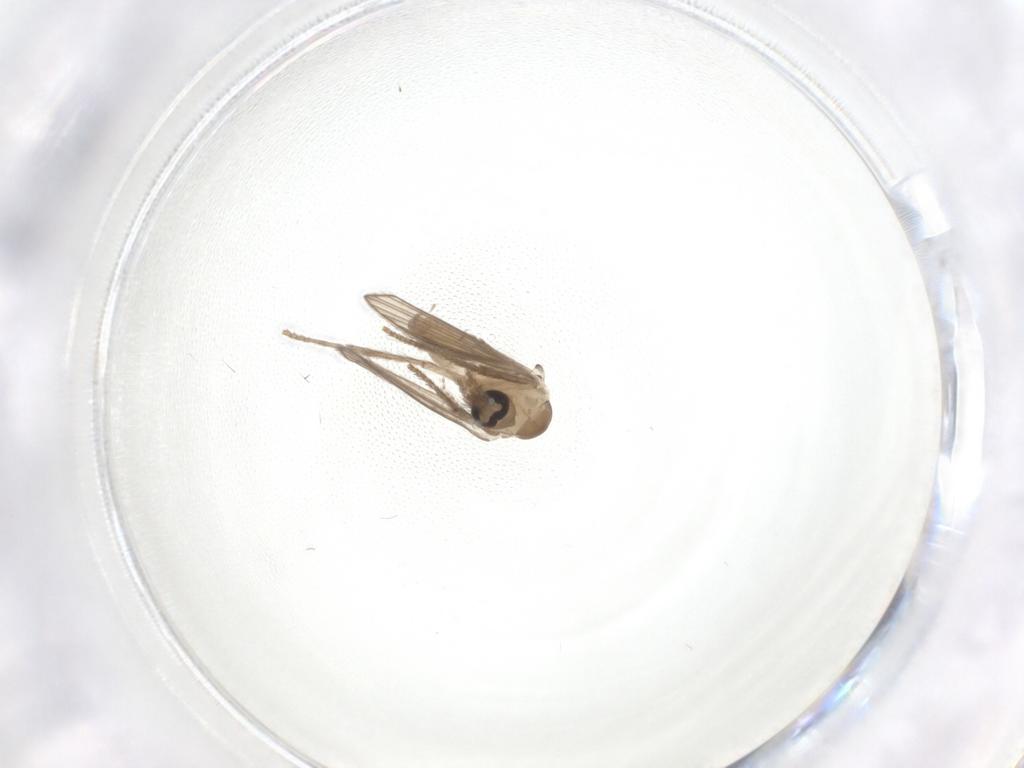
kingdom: Animalia
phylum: Arthropoda
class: Insecta
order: Diptera
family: Psychodidae
